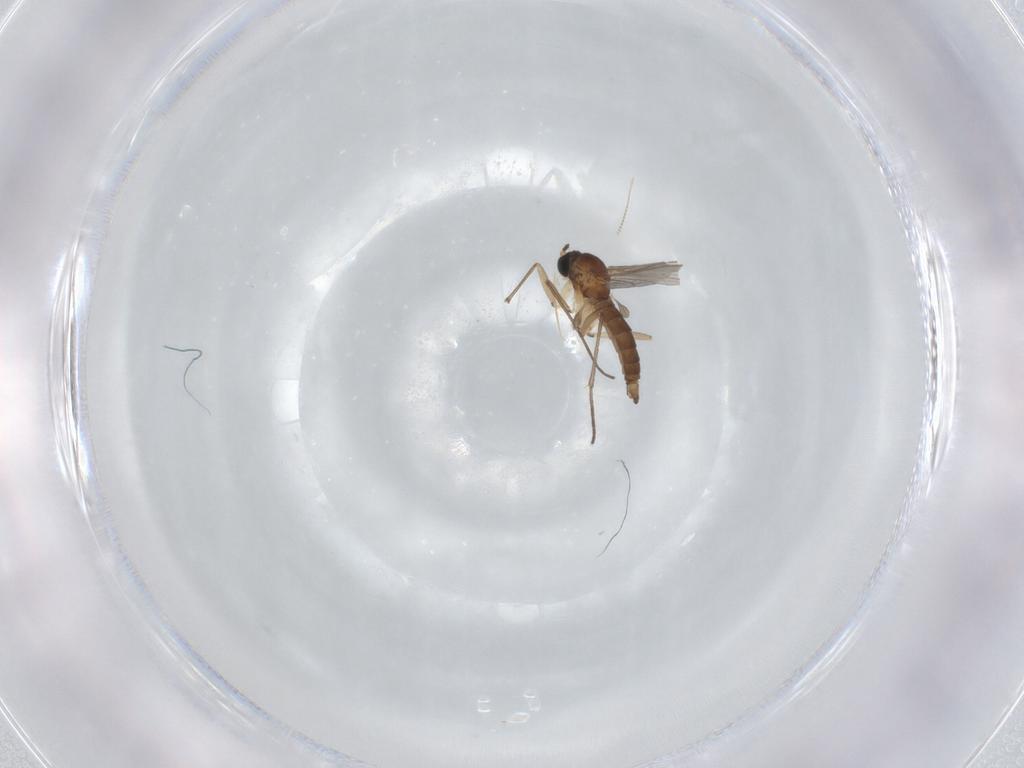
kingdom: Animalia
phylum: Arthropoda
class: Insecta
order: Diptera
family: Sciaridae
